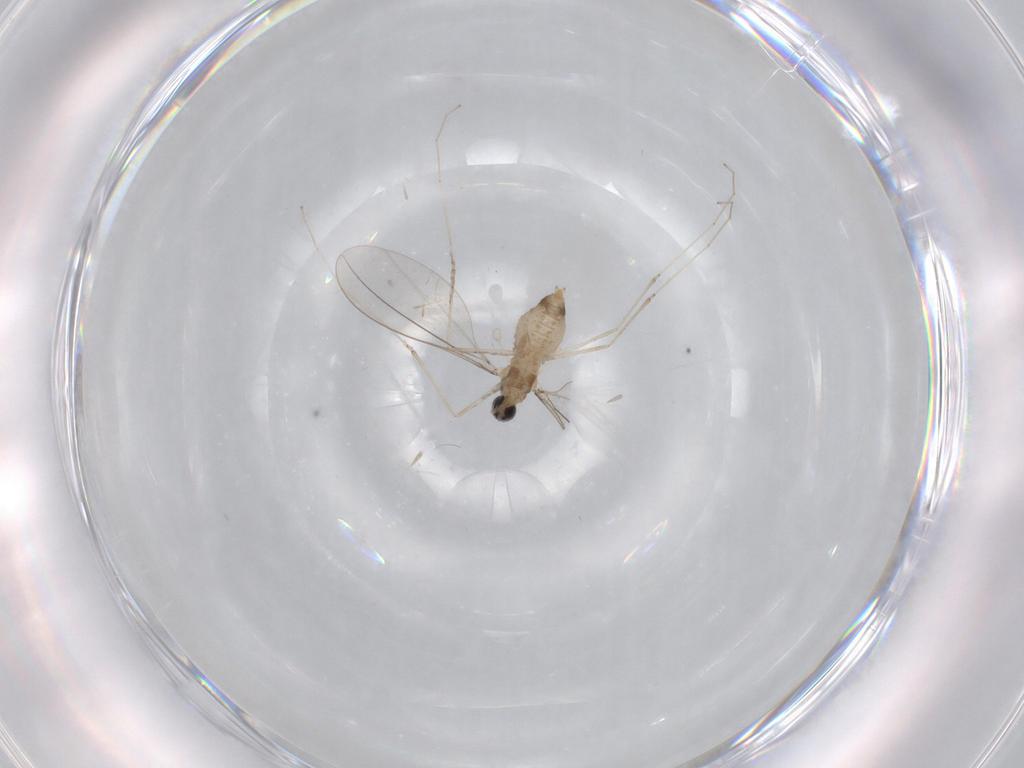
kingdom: Animalia
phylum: Arthropoda
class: Insecta
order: Diptera
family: Cecidomyiidae
